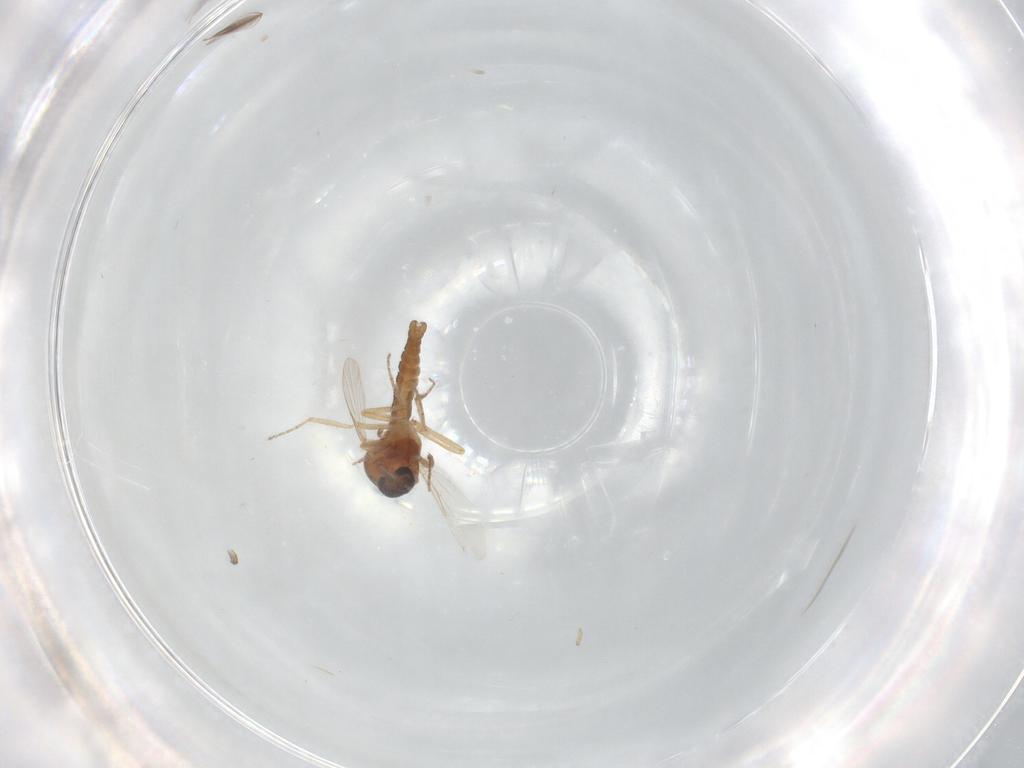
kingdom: Animalia
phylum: Arthropoda
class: Insecta
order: Diptera
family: Ceratopogonidae
